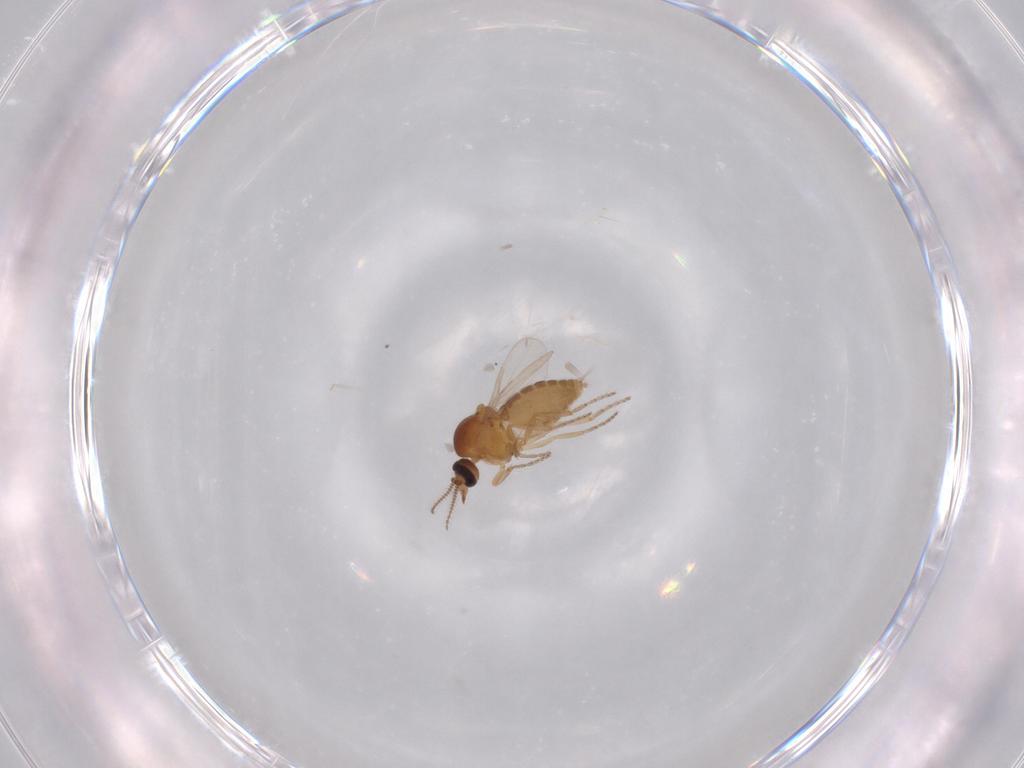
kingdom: Animalia
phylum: Arthropoda
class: Insecta
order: Diptera
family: Ceratopogonidae
